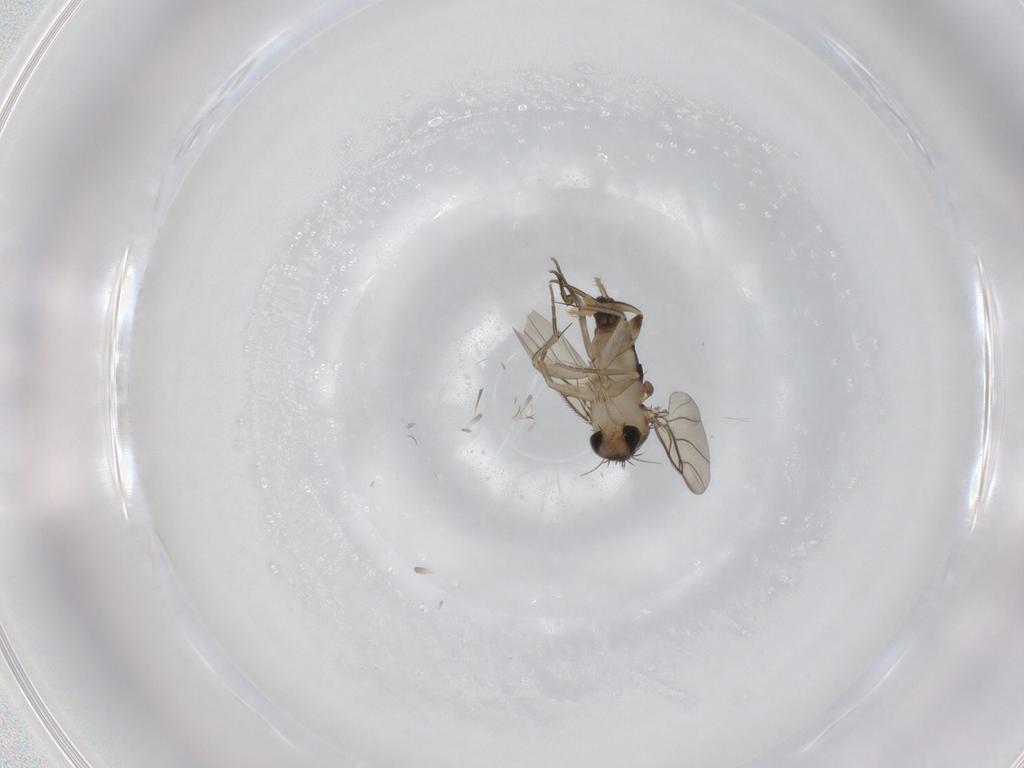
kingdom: Animalia
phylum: Arthropoda
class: Insecta
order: Diptera
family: Phoridae
